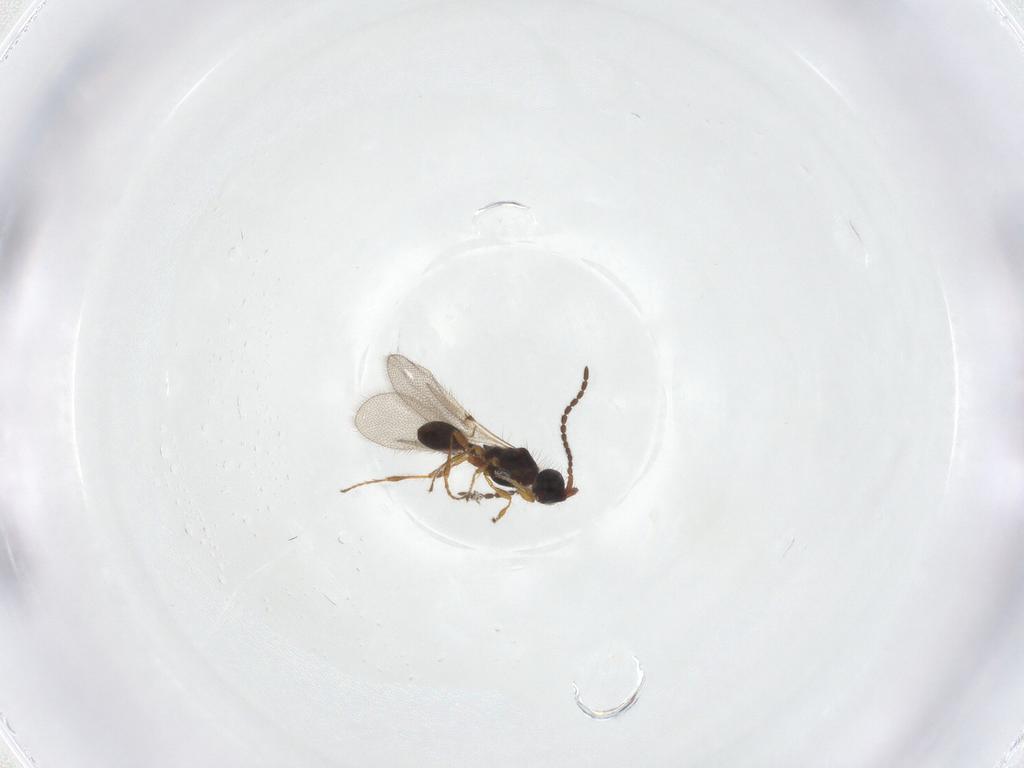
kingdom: Animalia
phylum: Arthropoda
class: Insecta
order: Hymenoptera
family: Diapriidae
